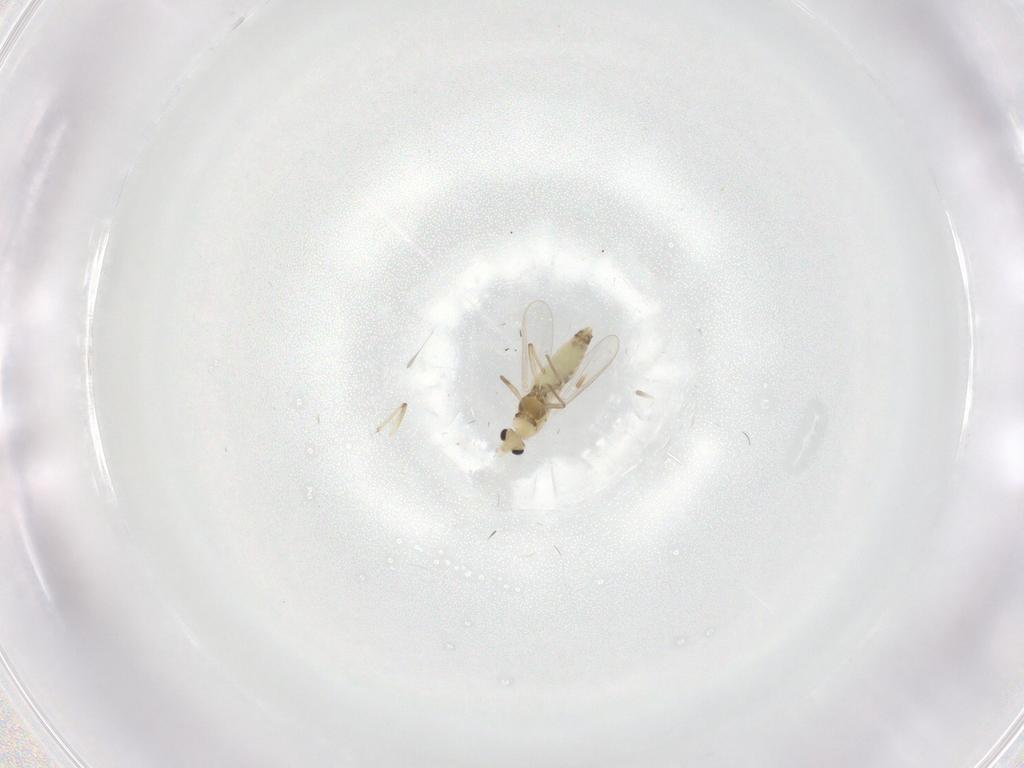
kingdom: Animalia
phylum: Arthropoda
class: Insecta
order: Diptera
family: Chironomidae
